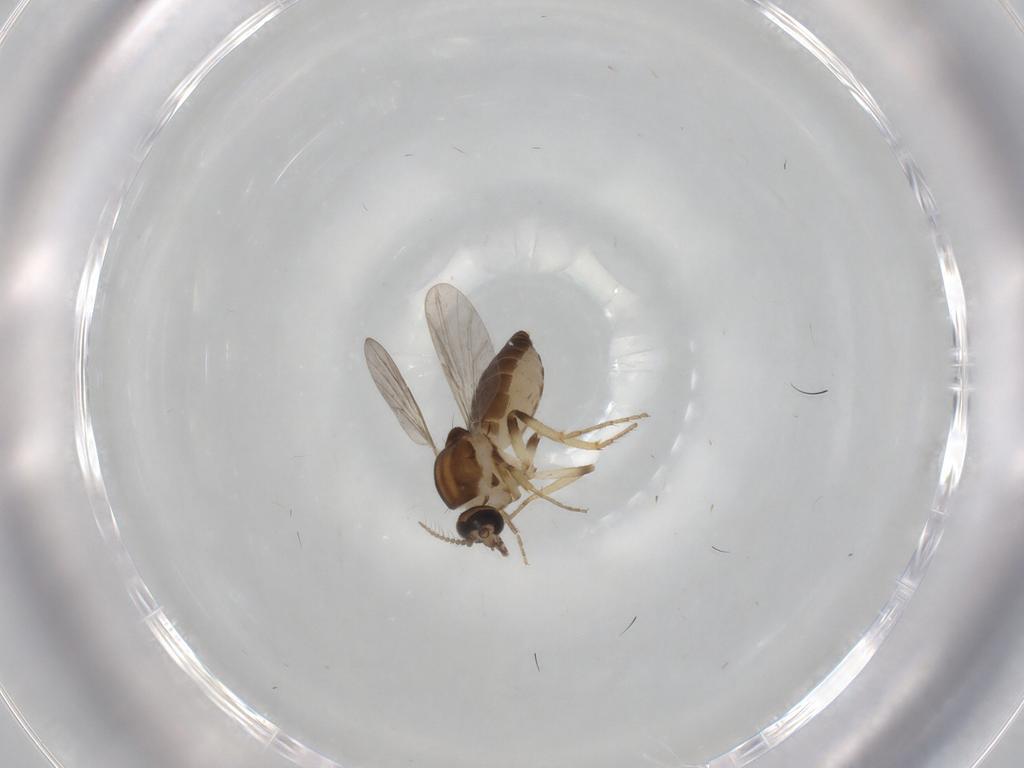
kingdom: Animalia
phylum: Arthropoda
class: Insecta
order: Diptera
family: Ceratopogonidae
